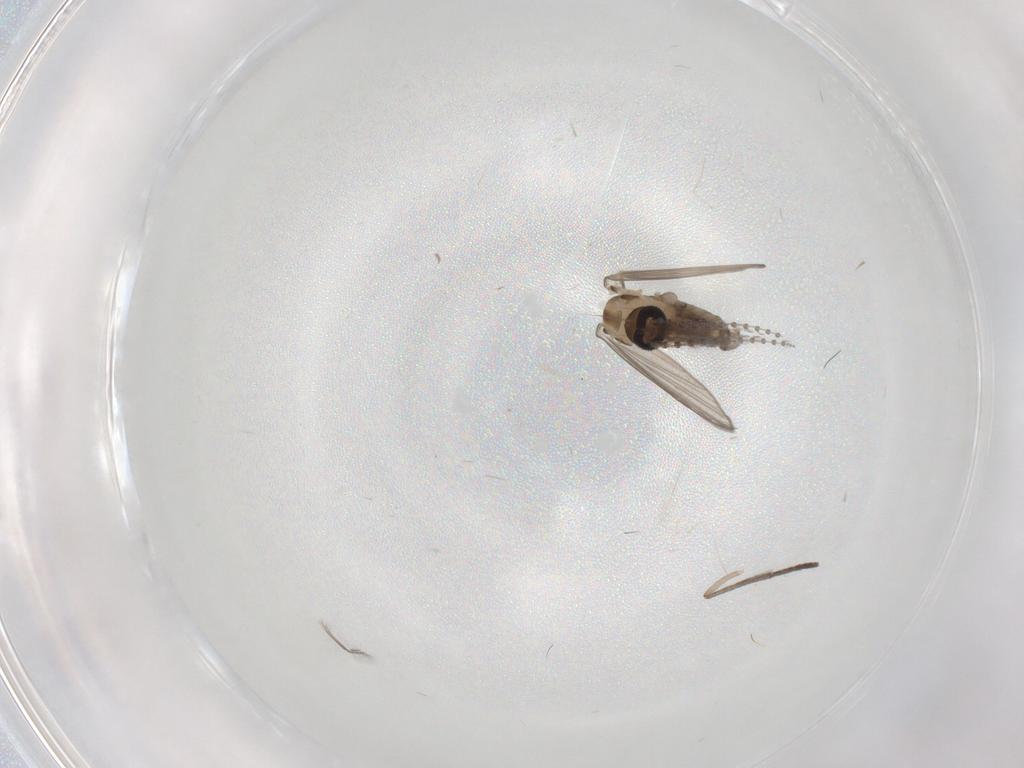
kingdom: Animalia
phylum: Arthropoda
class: Insecta
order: Diptera
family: Psychodidae
